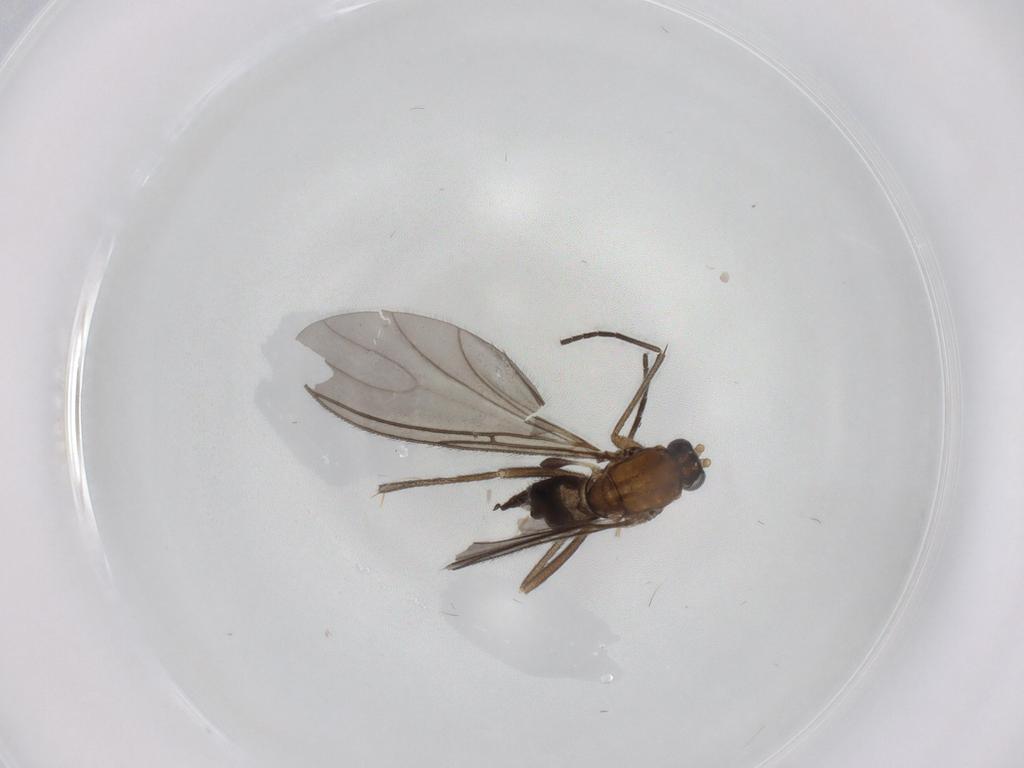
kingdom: Animalia
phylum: Arthropoda
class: Insecta
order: Diptera
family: Sciaridae
